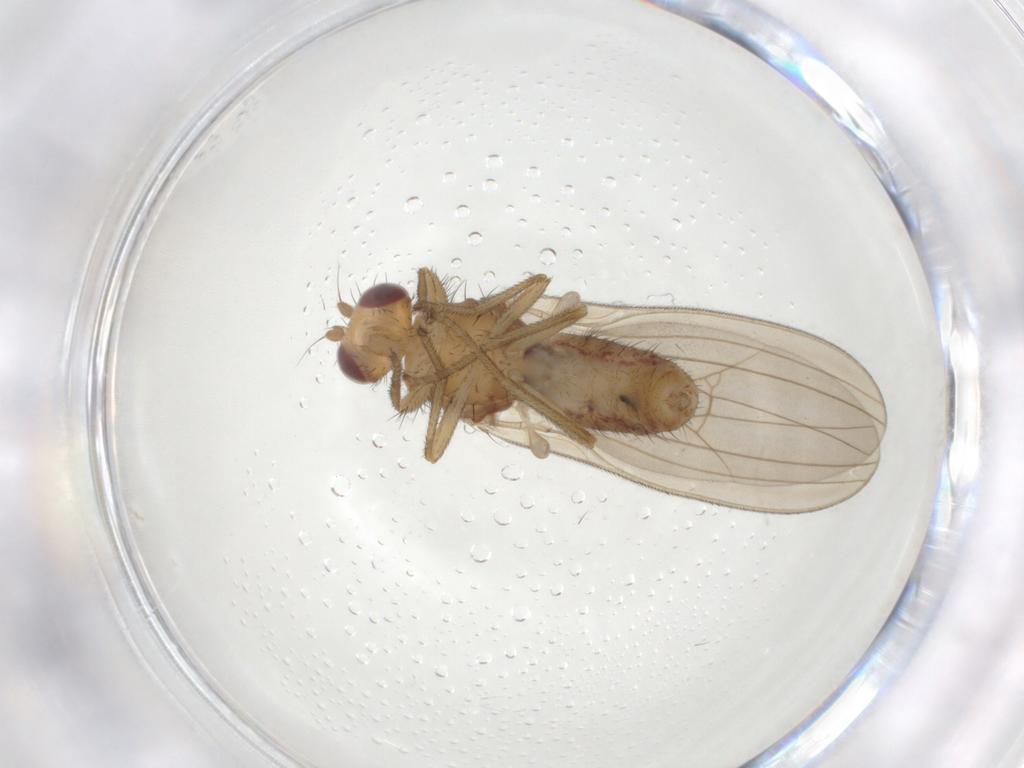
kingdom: Animalia
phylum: Arthropoda
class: Insecta
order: Diptera
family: Natalimyzidae
